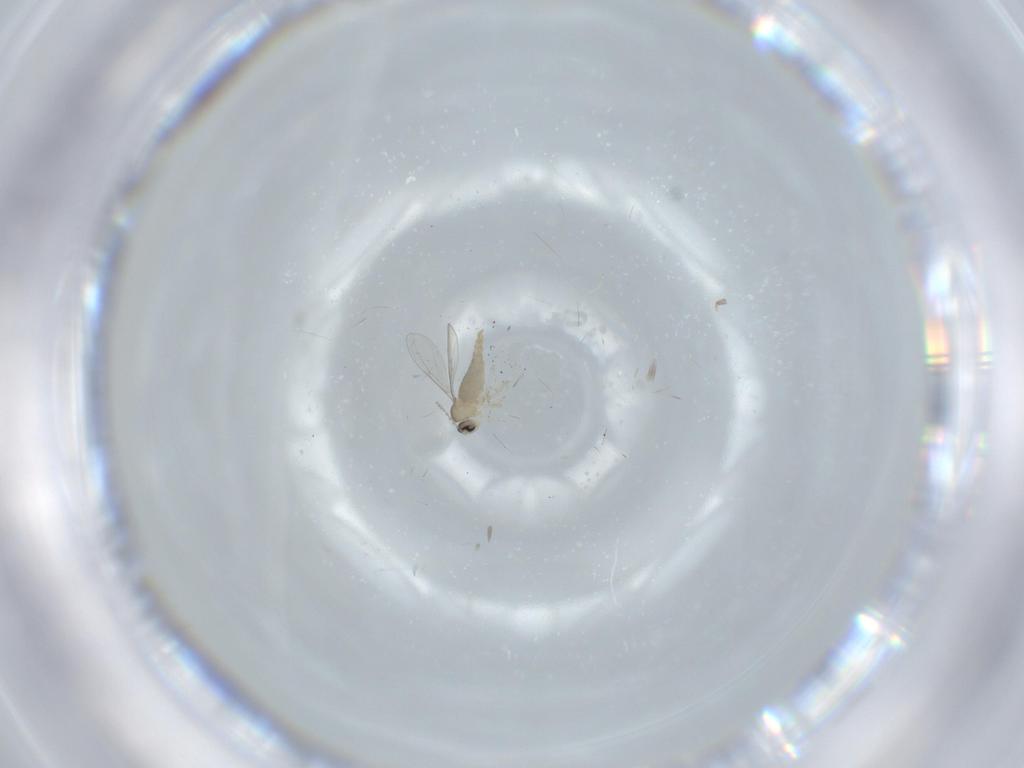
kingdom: Animalia
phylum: Arthropoda
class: Insecta
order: Diptera
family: Cecidomyiidae
